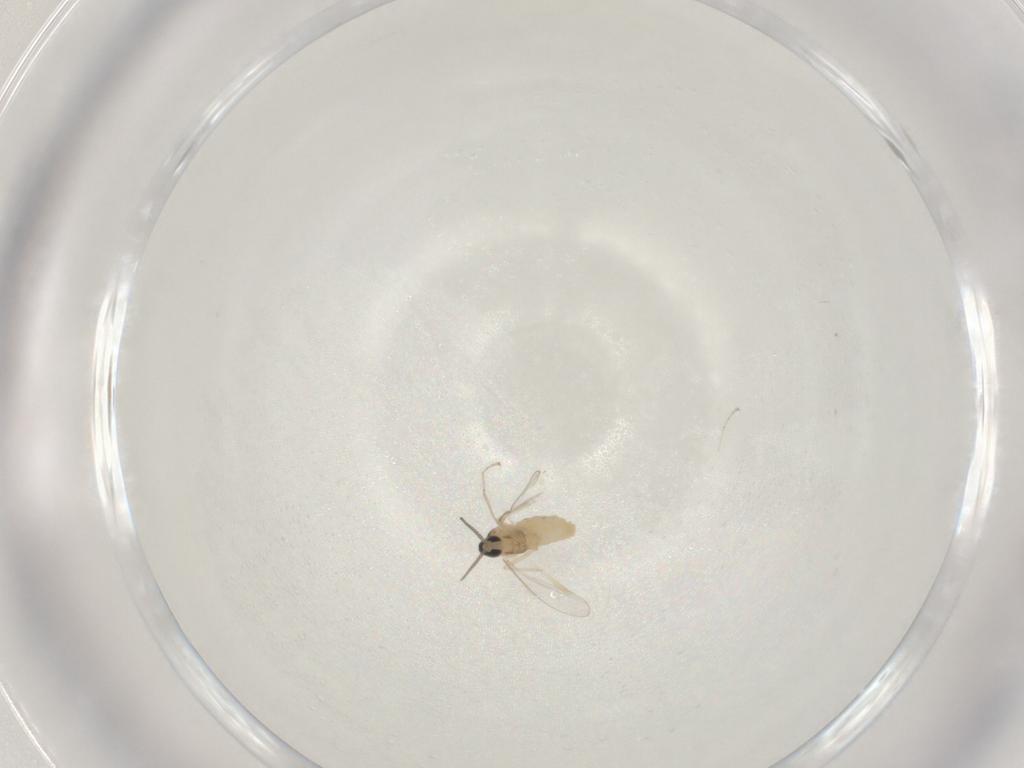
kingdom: Animalia
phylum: Arthropoda
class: Insecta
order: Diptera
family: Cecidomyiidae
